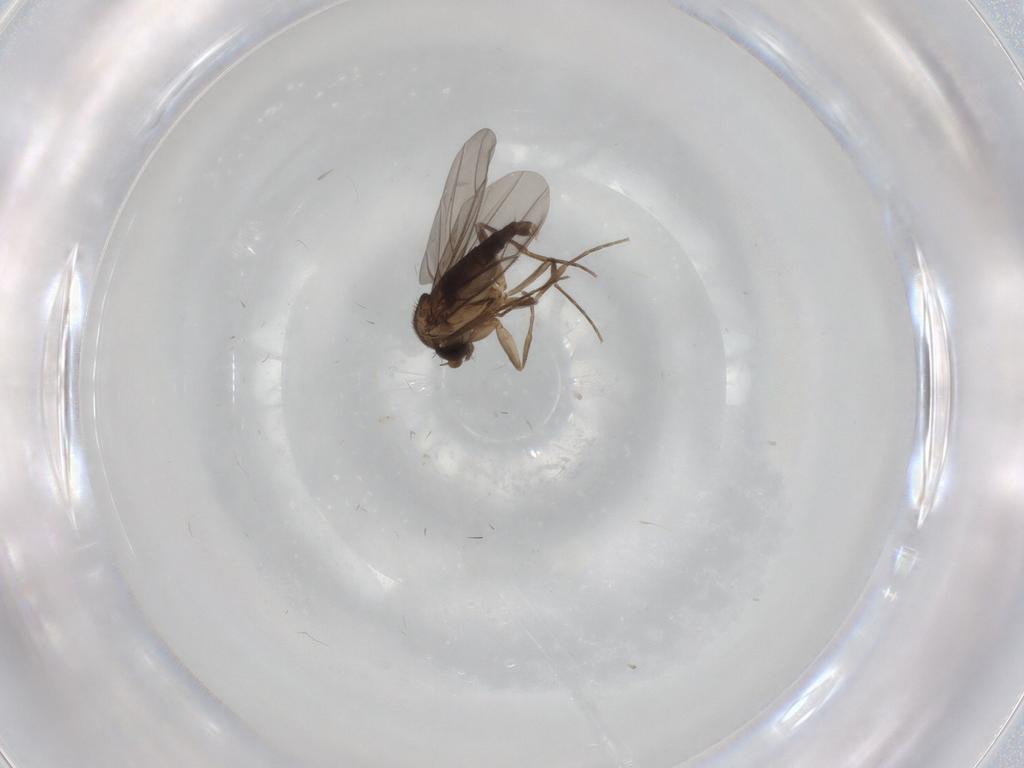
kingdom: Animalia
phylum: Arthropoda
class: Insecta
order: Diptera
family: Phoridae
